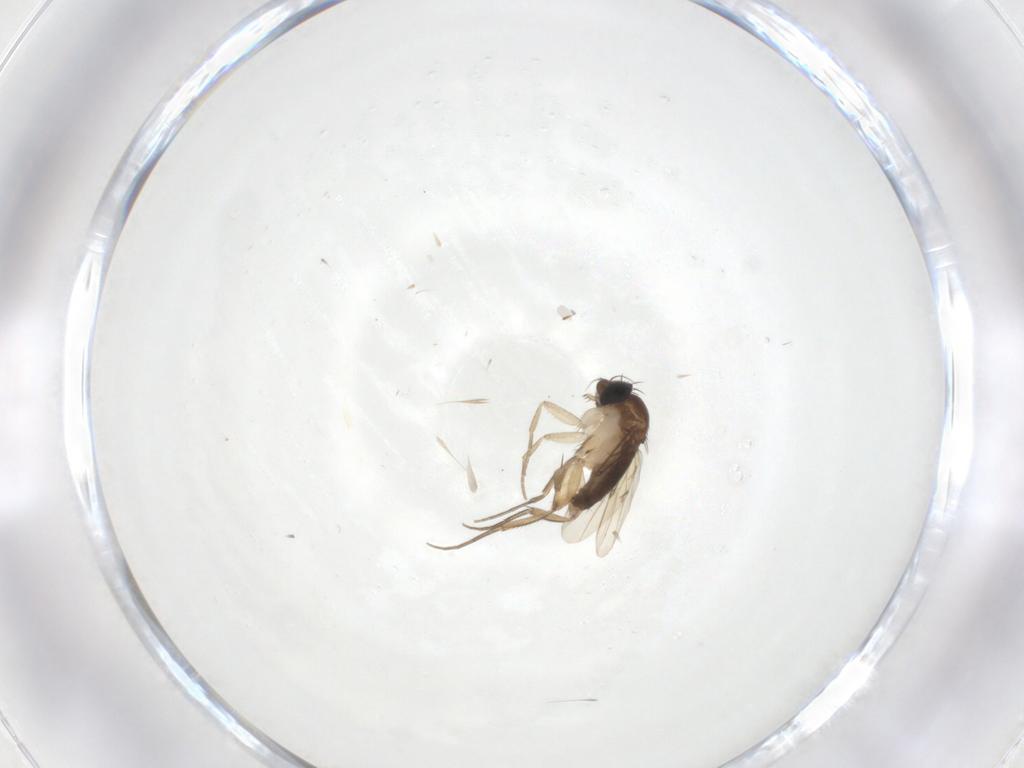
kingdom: Animalia
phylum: Arthropoda
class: Insecta
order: Diptera
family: Phoridae
